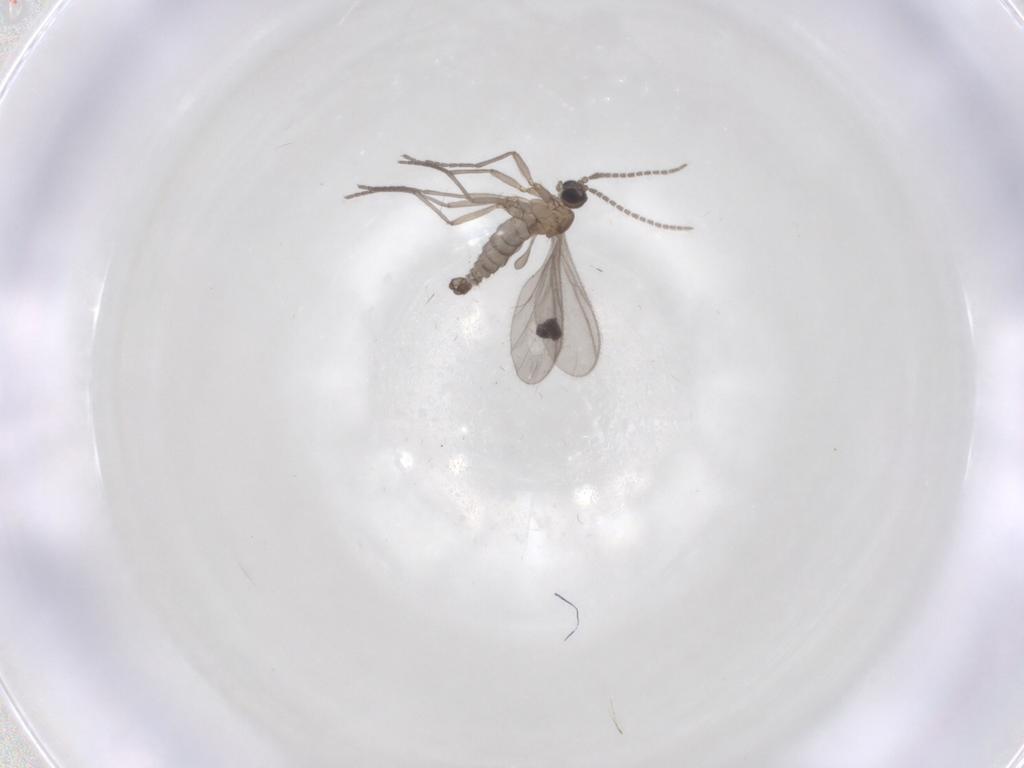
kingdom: Animalia
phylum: Arthropoda
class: Insecta
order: Diptera
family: Sciaridae
